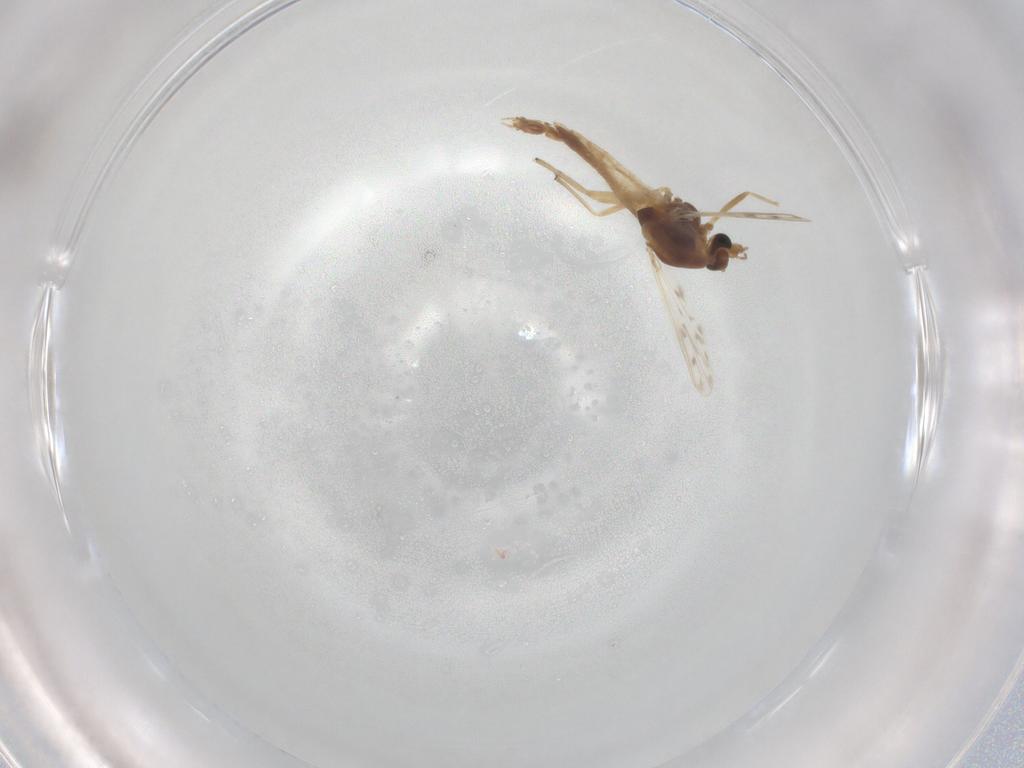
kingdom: Animalia
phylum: Arthropoda
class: Insecta
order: Diptera
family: Chironomidae
